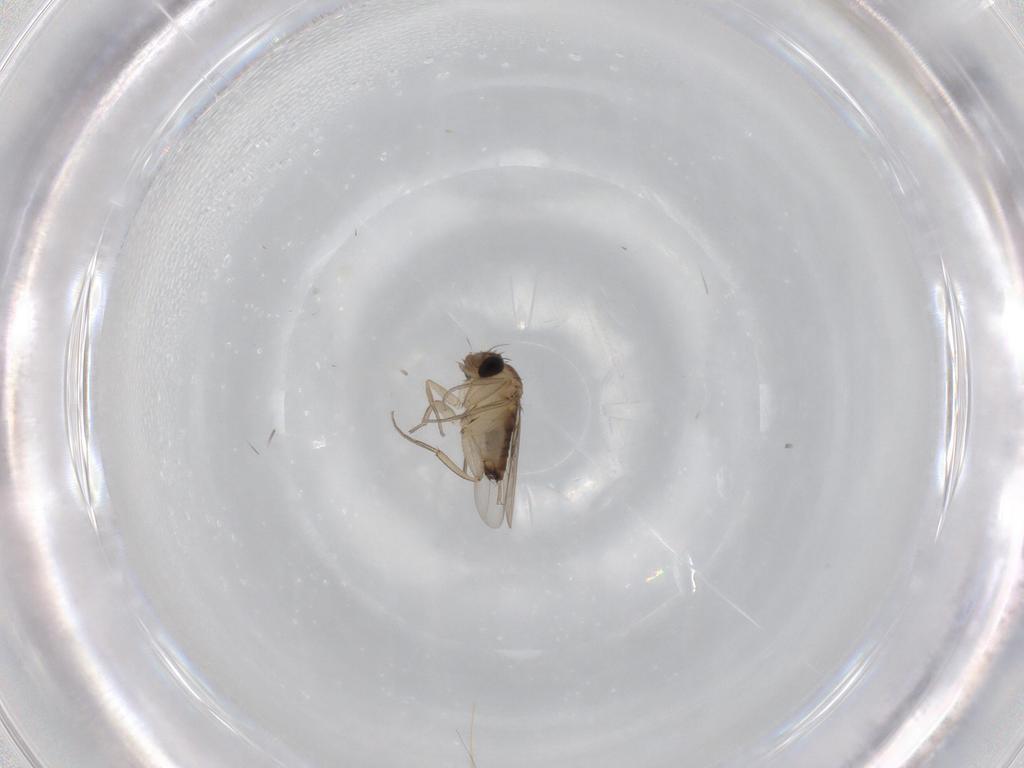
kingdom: Animalia
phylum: Arthropoda
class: Insecta
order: Diptera
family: Cecidomyiidae
